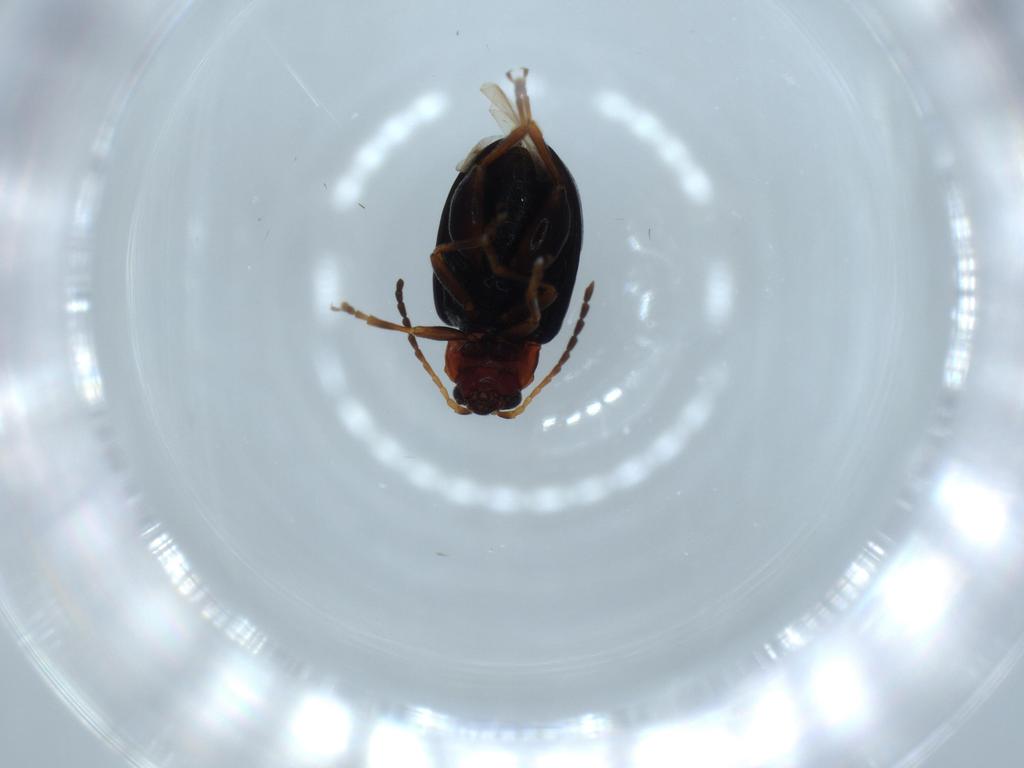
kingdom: Animalia
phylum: Arthropoda
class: Insecta
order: Coleoptera
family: Chrysomelidae
